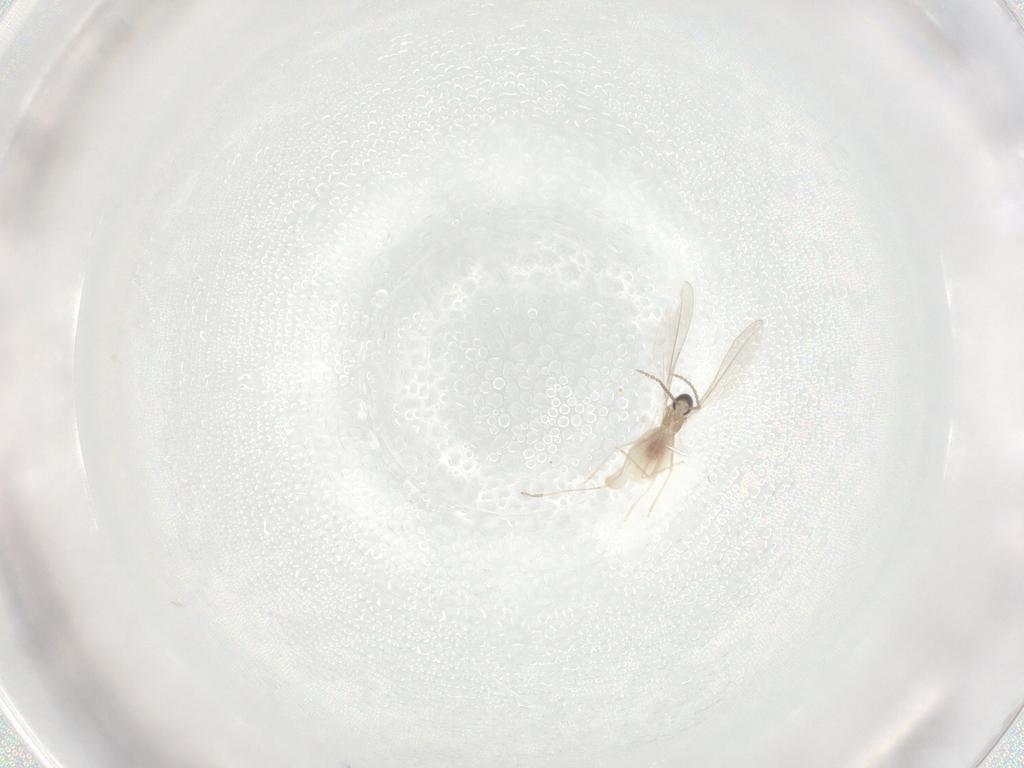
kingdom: Animalia
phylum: Arthropoda
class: Insecta
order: Diptera
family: Cecidomyiidae
